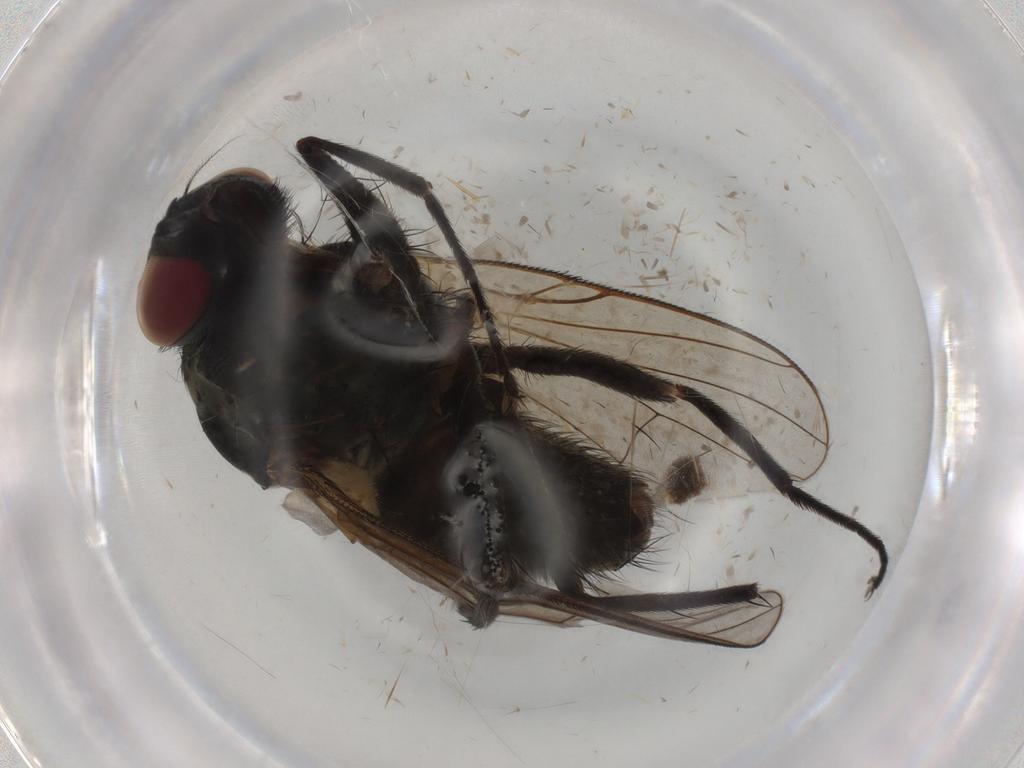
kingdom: Animalia
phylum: Arthropoda
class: Insecta
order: Diptera
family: Muscidae
